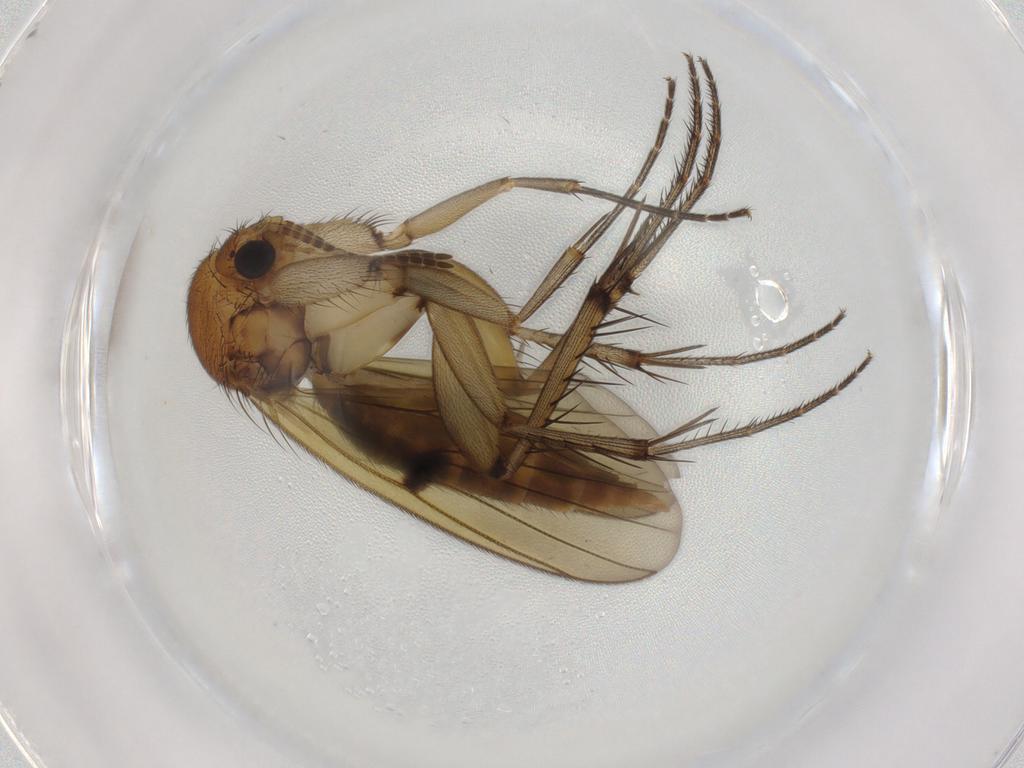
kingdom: Animalia
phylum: Arthropoda
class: Insecta
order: Diptera
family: Mycetophilidae
